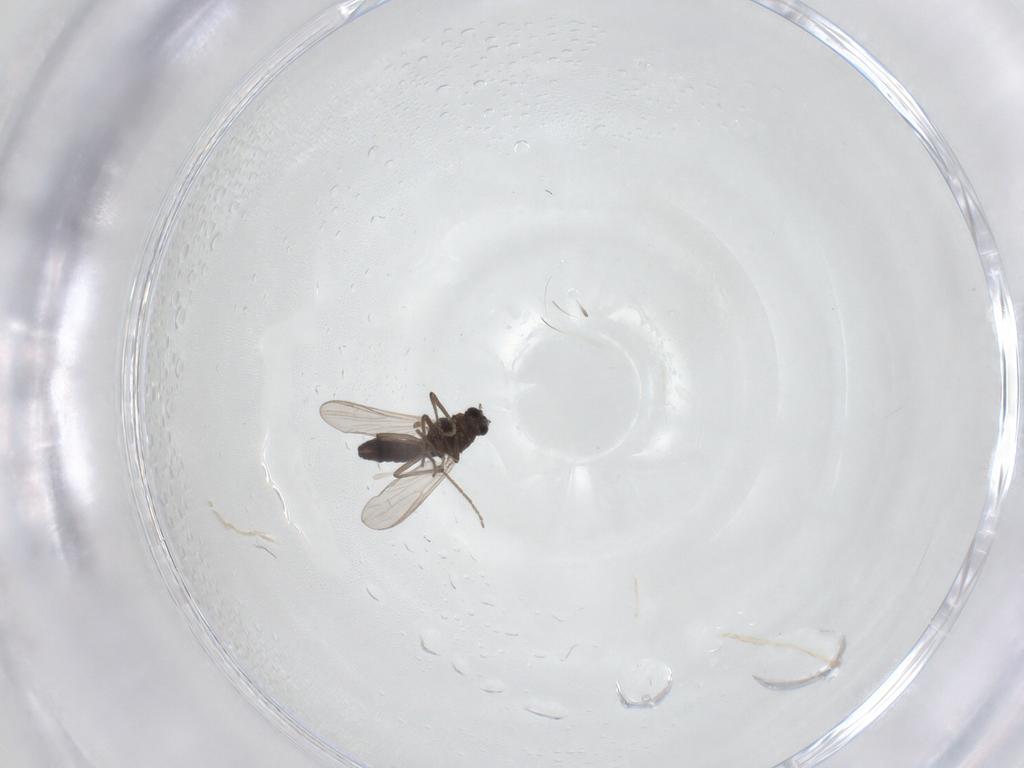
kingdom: Animalia
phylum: Arthropoda
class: Insecta
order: Diptera
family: Chironomidae
